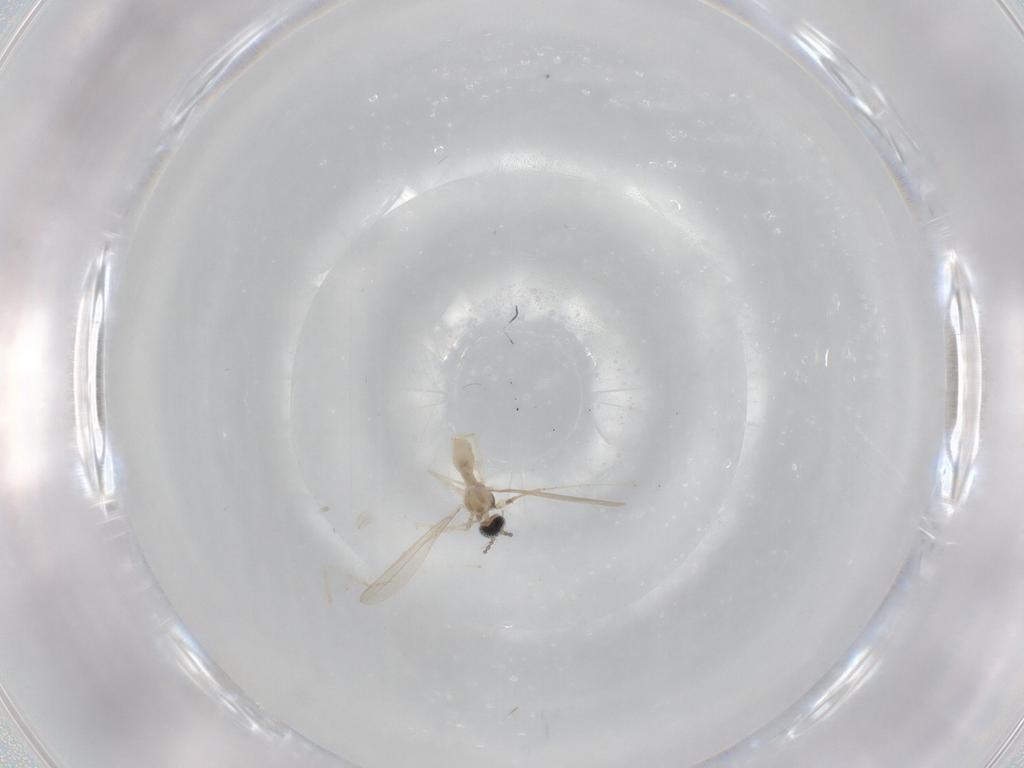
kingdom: Animalia
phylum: Arthropoda
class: Insecta
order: Diptera
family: Cecidomyiidae
